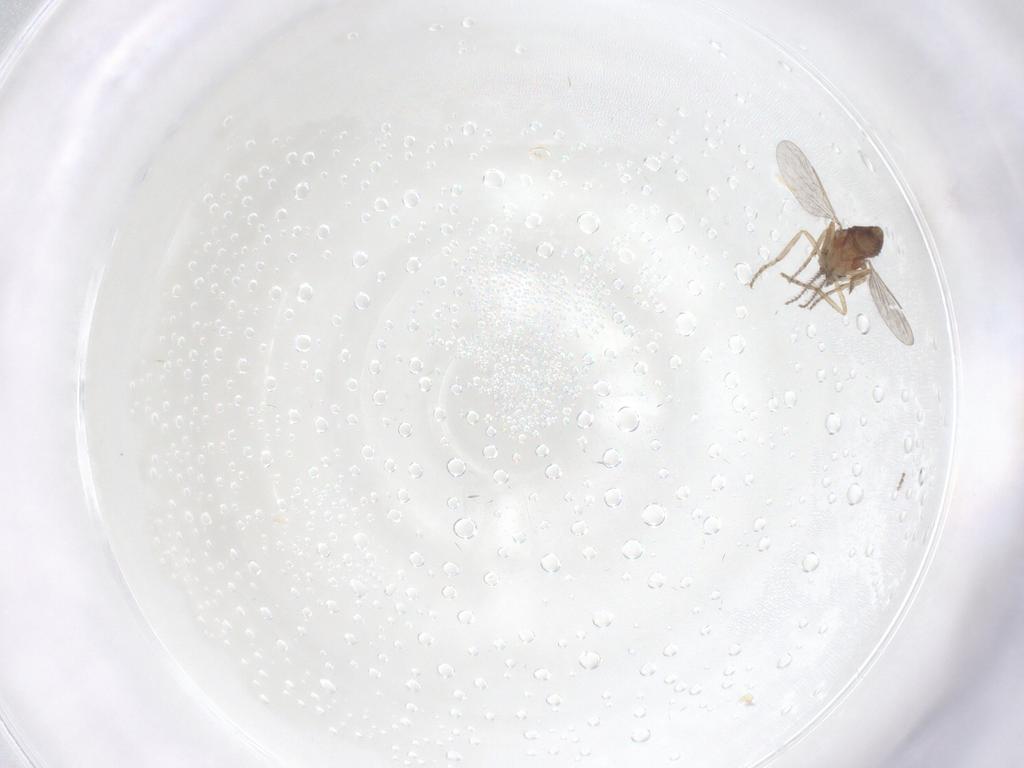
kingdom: Animalia
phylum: Arthropoda
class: Insecta
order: Diptera
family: Ceratopogonidae
